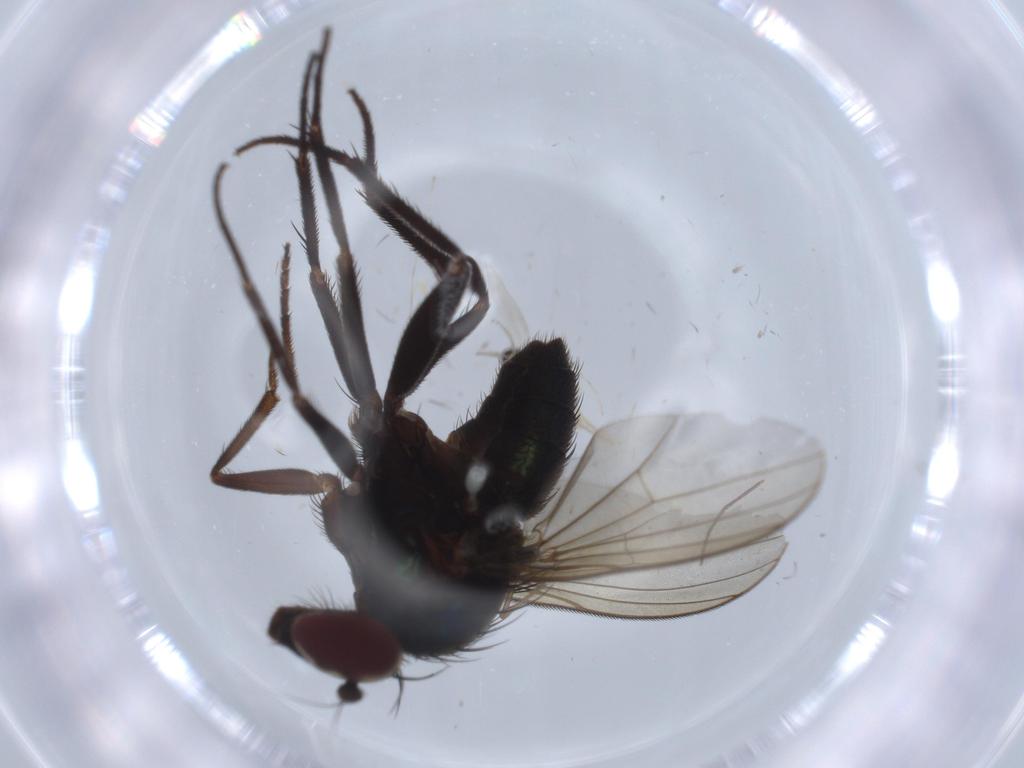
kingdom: Animalia
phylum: Arthropoda
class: Insecta
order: Diptera
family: Dolichopodidae
